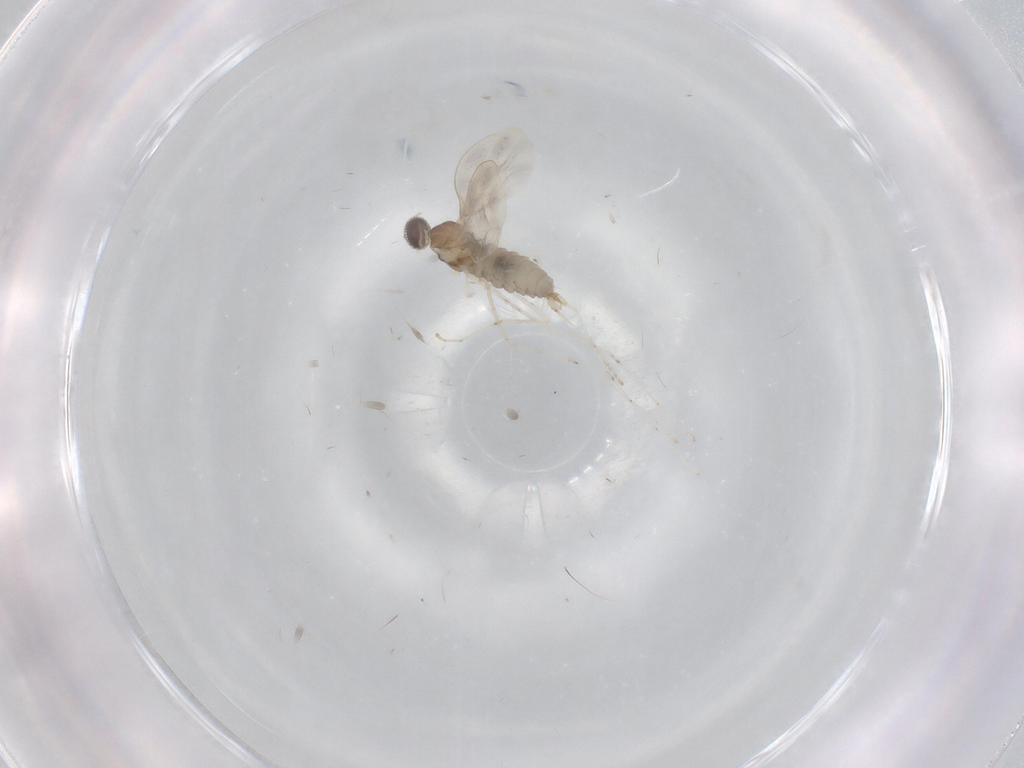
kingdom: Animalia
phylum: Arthropoda
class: Insecta
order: Diptera
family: Cecidomyiidae
